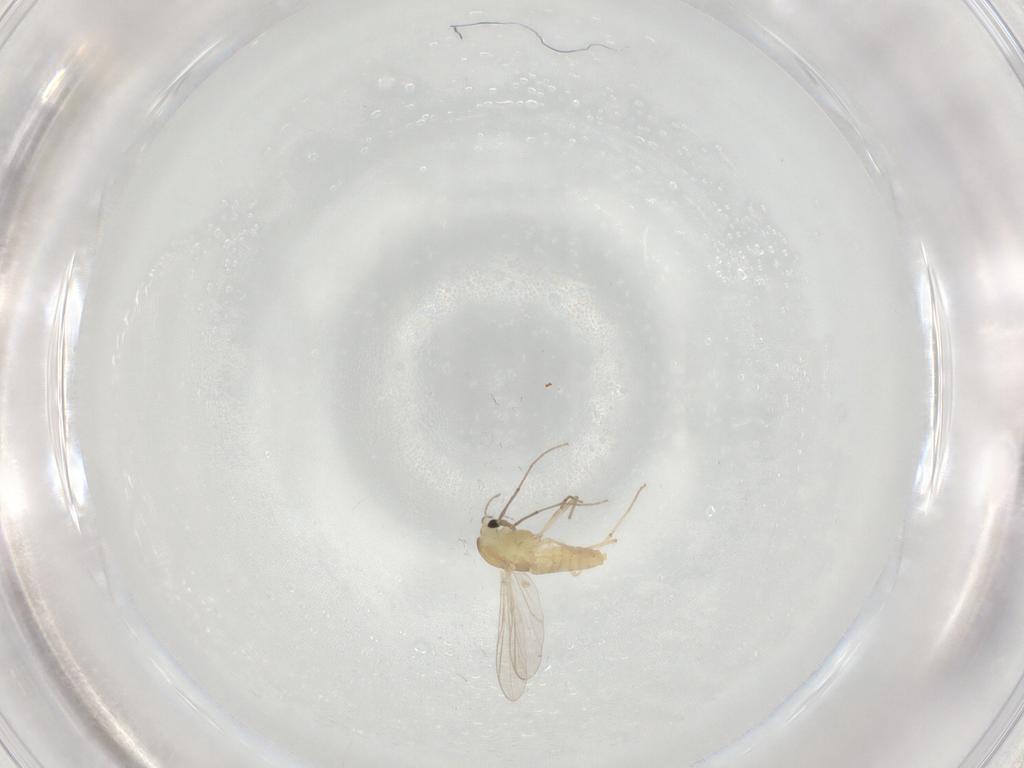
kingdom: Animalia
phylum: Arthropoda
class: Insecta
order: Diptera
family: Chironomidae
